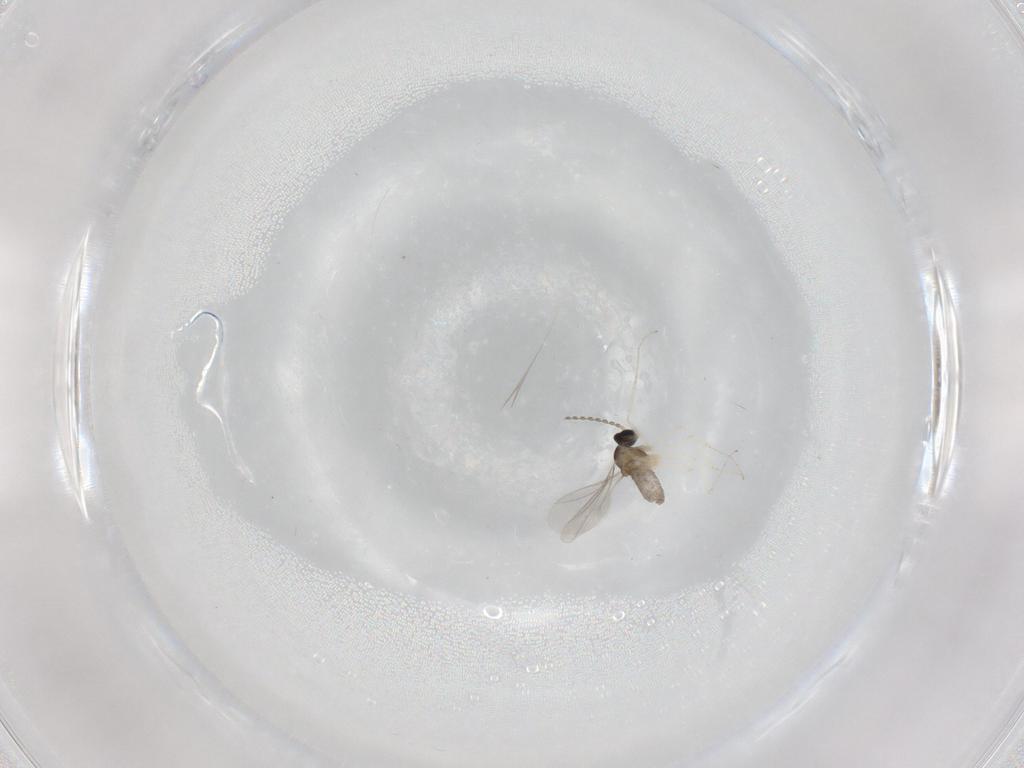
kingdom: Animalia
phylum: Arthropoda
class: Insecta
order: Diptera
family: Cecidomyiidae
